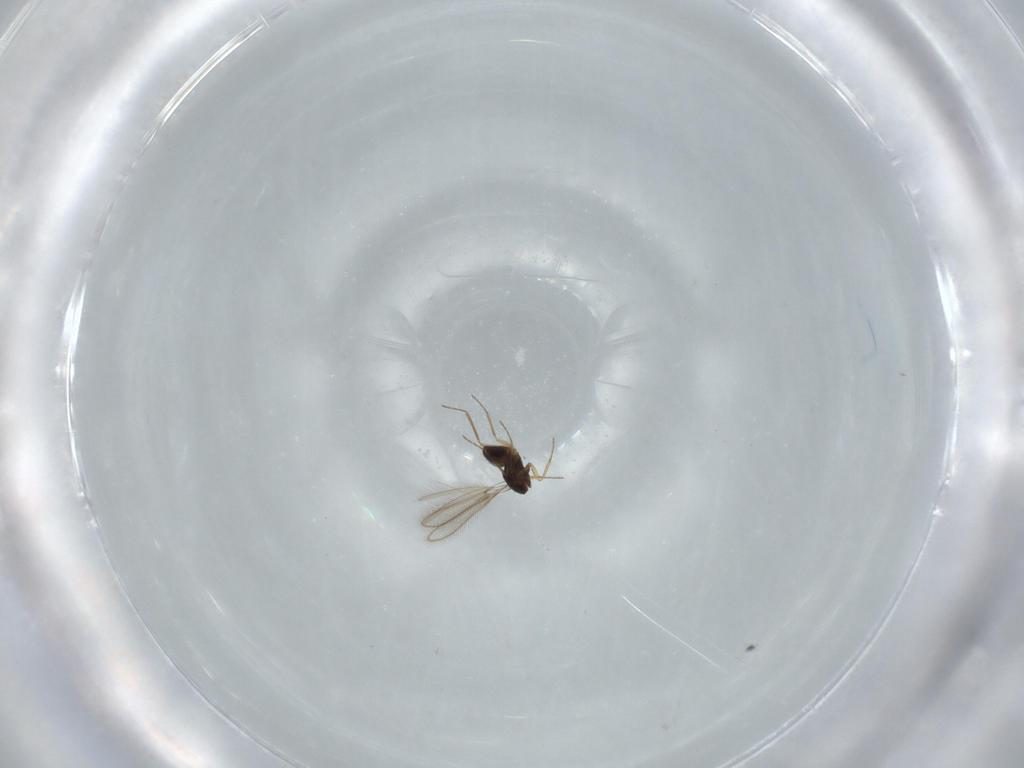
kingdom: Animalia
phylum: Arthropoda
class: Insecta
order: Hymenoptera
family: Mymaridae
